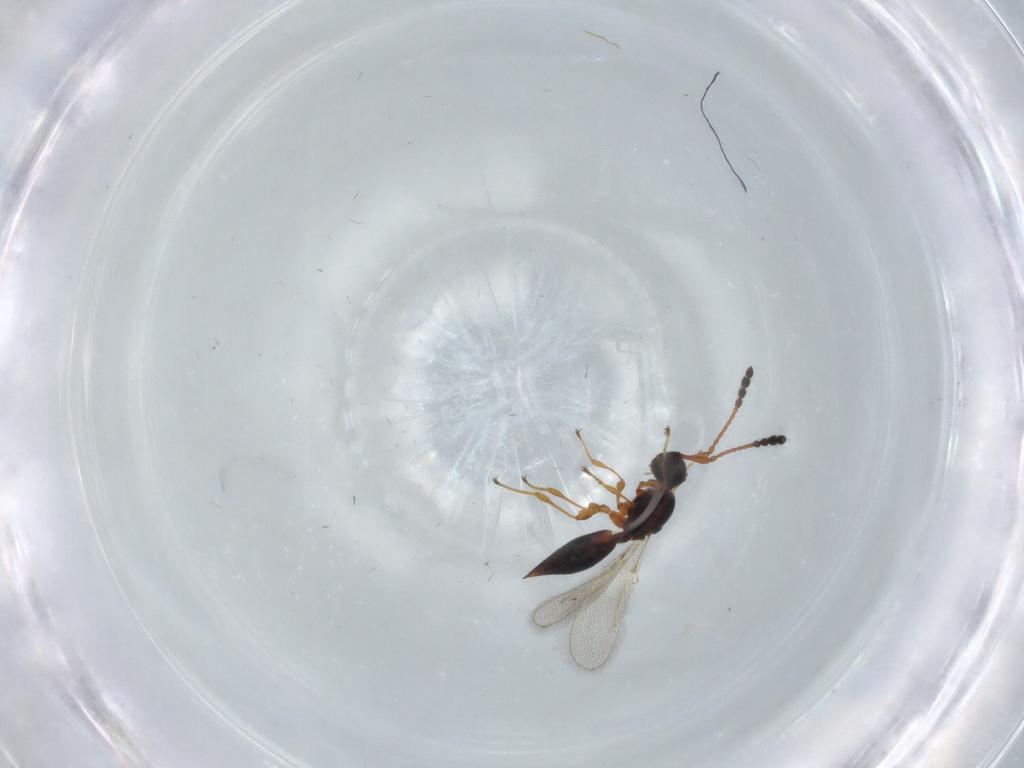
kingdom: Animalia
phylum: Arthropoda
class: Insecta
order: Hymenoptera
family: Diapriidae
